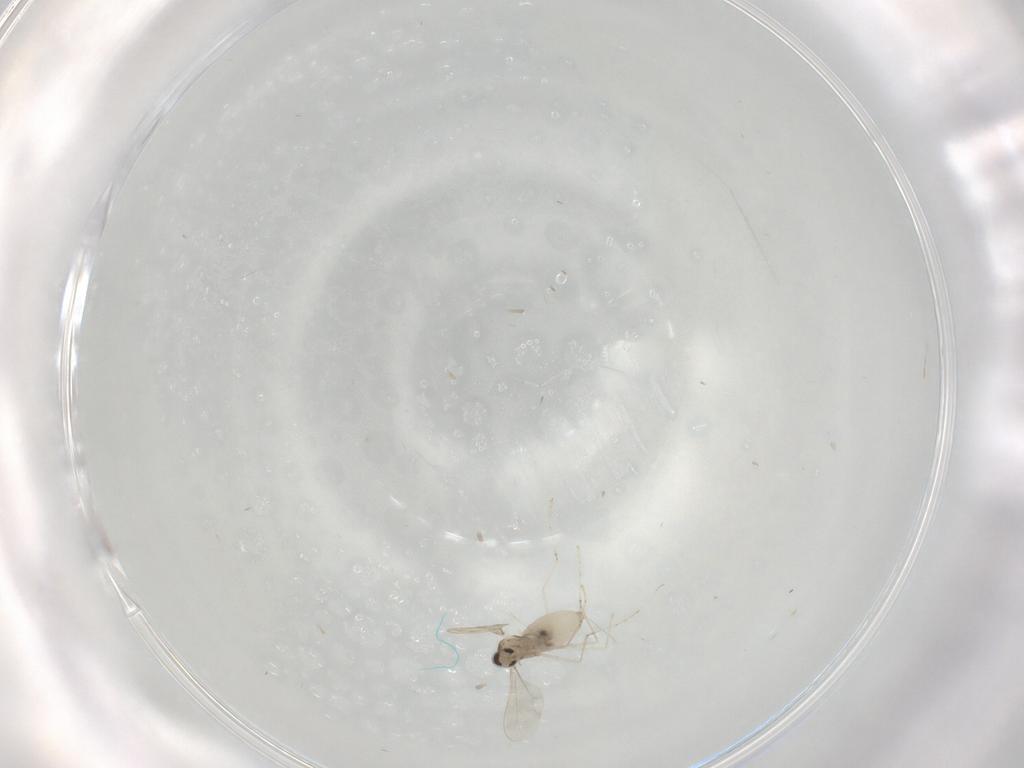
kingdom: Animalia
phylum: Arthropoda
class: Insecta
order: Diptera
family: Cecidomyiidae
